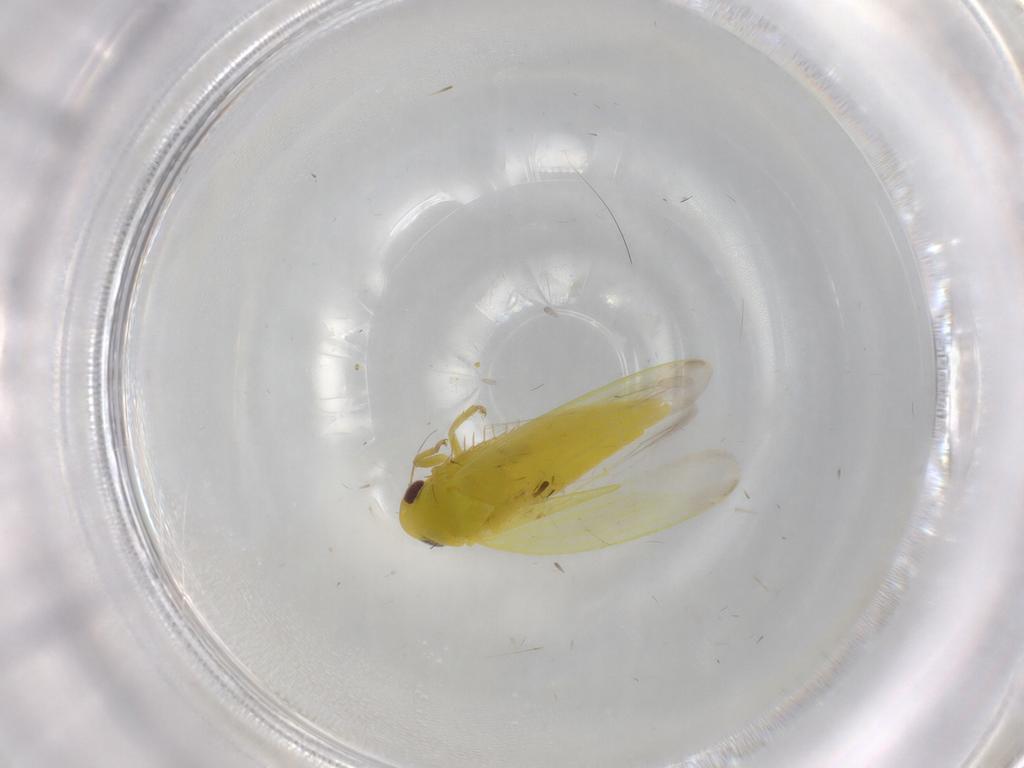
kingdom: Animalia
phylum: Arthropoda
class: Insecta
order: Hemiptera
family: Cicadellidae
